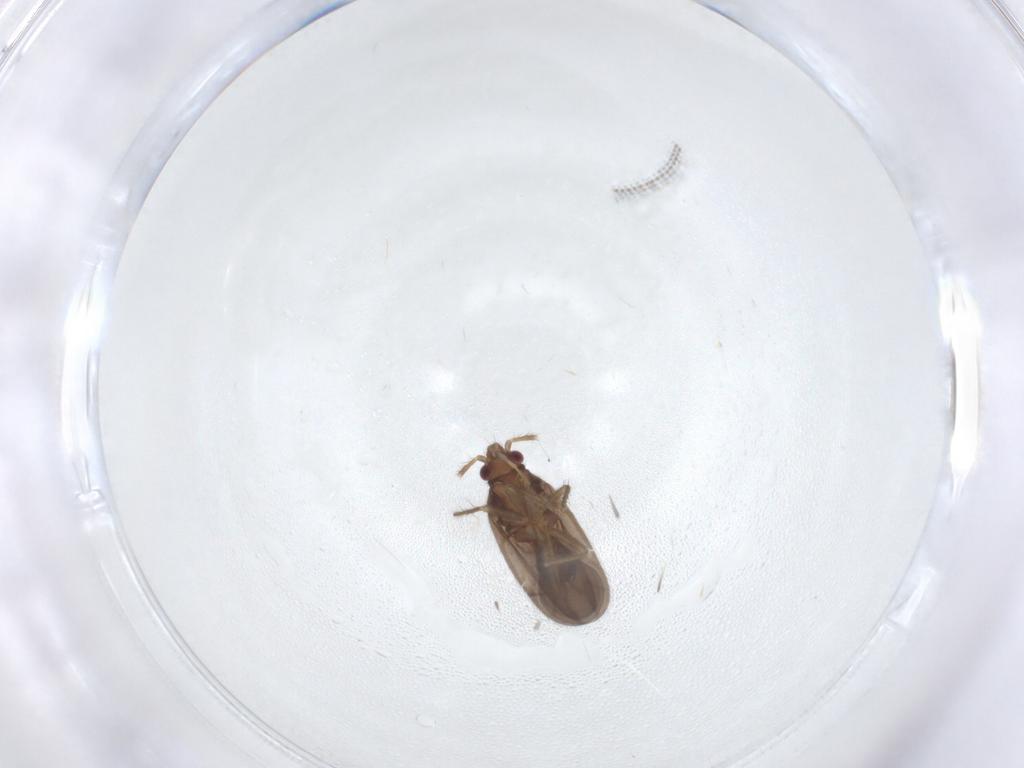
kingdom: Animalia
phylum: Arthropoda
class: Insecta
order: Hemiptera
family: Ceratocombidae
